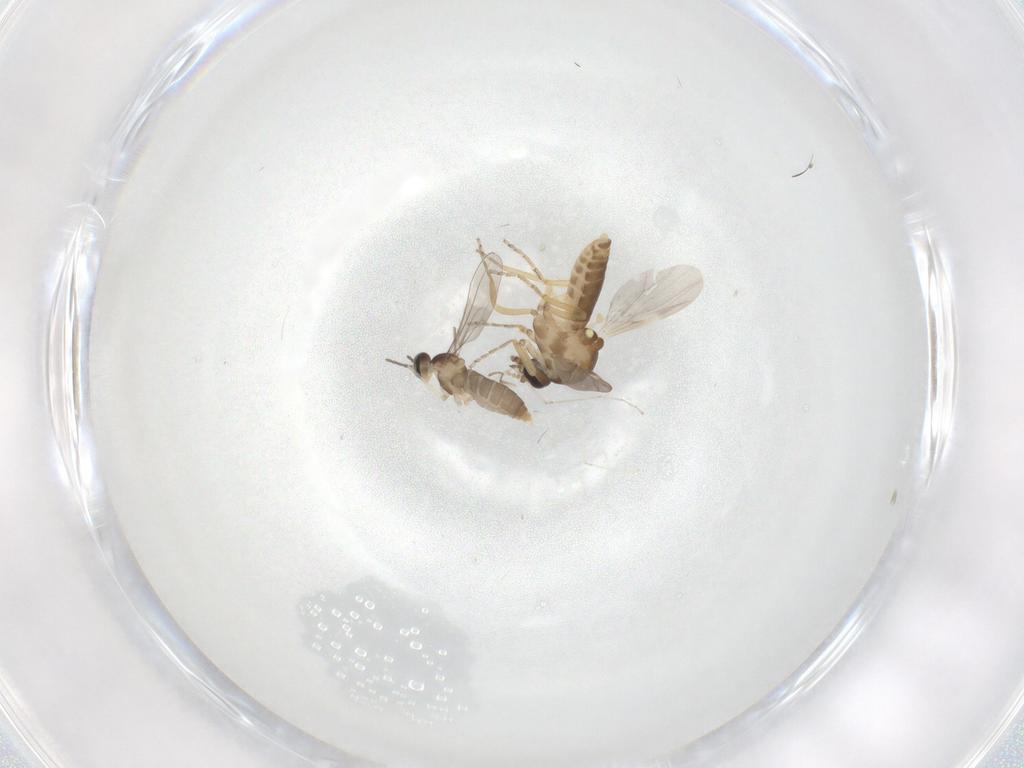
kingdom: Animalia
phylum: Arthropoda
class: Insecta
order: Diptera
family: Ceratopogonidae
